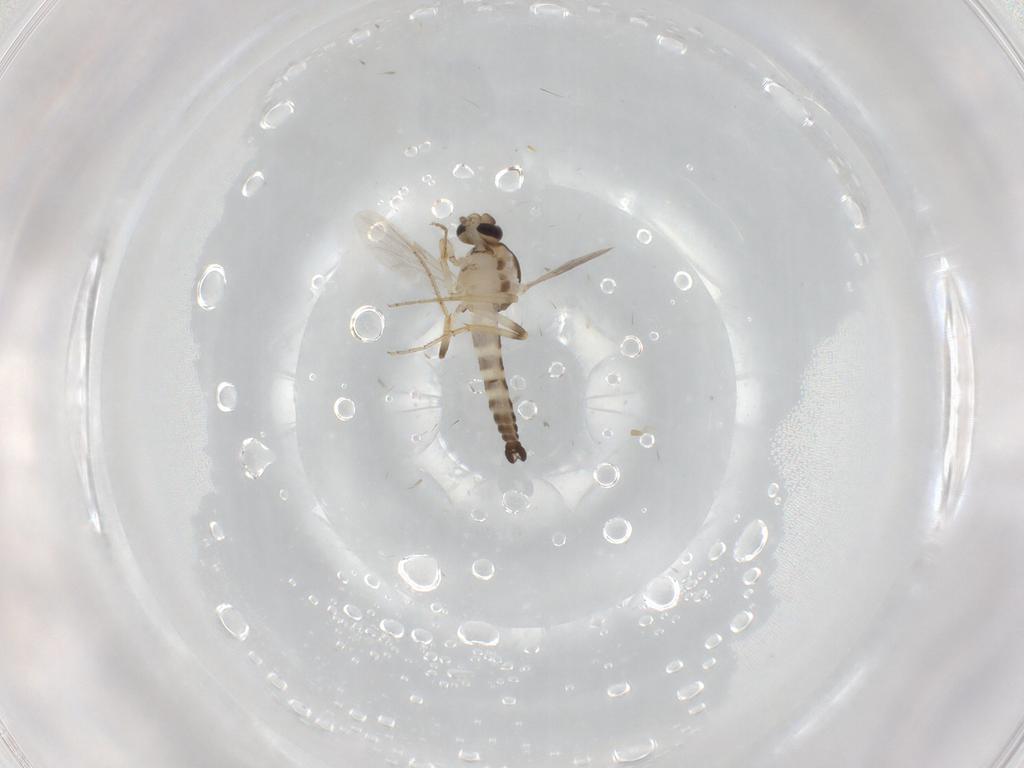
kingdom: Animalia
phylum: Arthropoda
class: Insecta
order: Diptera
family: Ceratopogonidae
